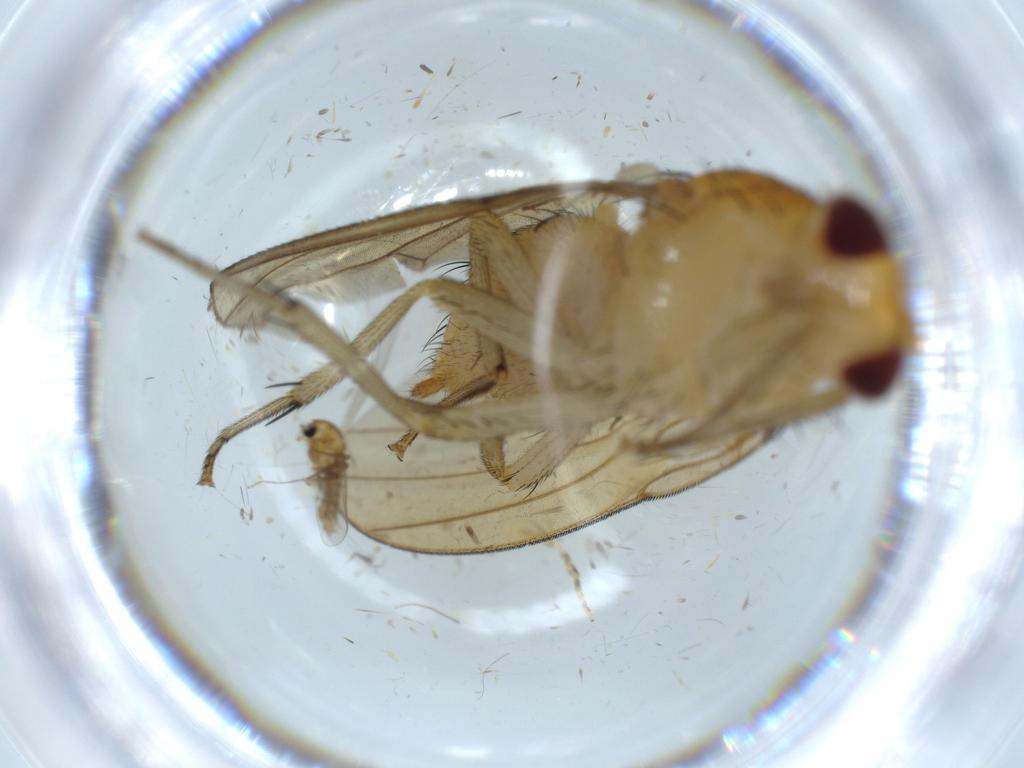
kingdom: Animalia
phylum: Arthropoda
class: Insecta
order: Diptera
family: Chironomidae
